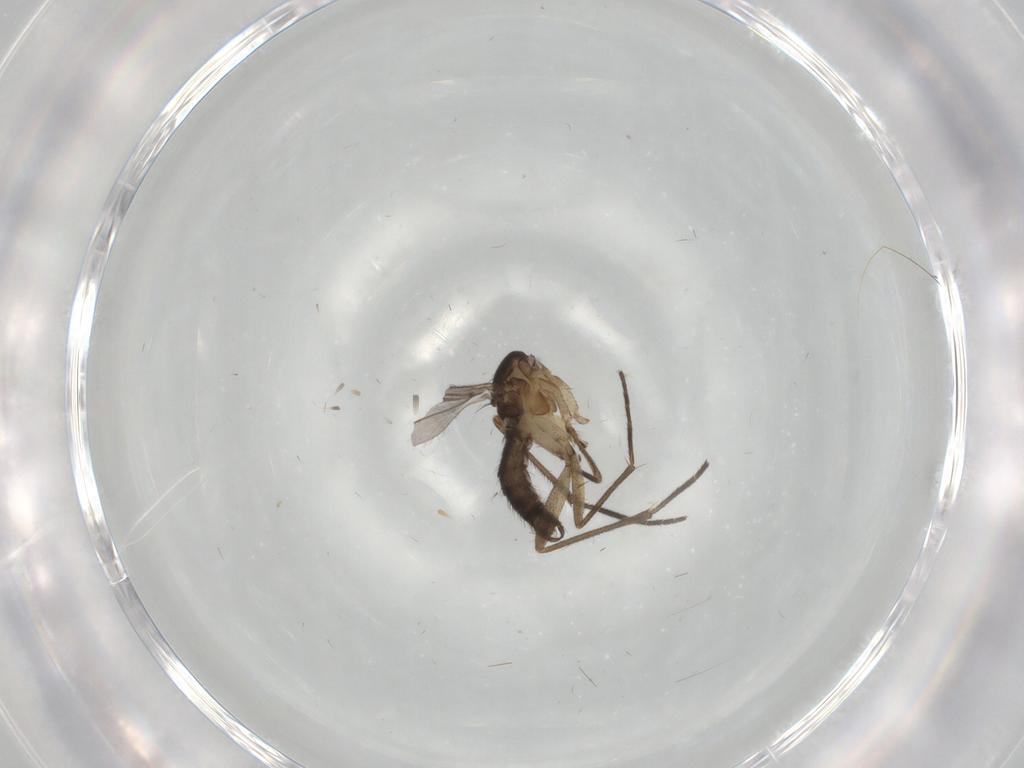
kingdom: Animalia
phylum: Arthropoda
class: Insecta
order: Diptera
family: Sciaridae
